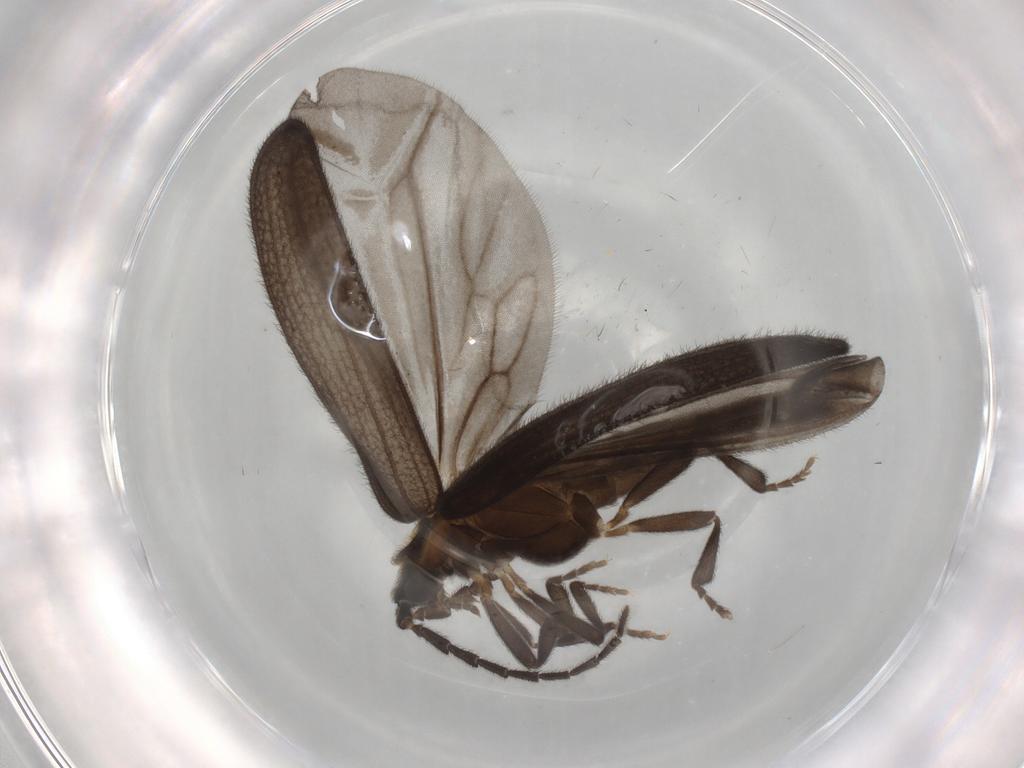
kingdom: Animalia
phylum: Arthropoda
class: Insecta
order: Coleoptera
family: Lycidae
